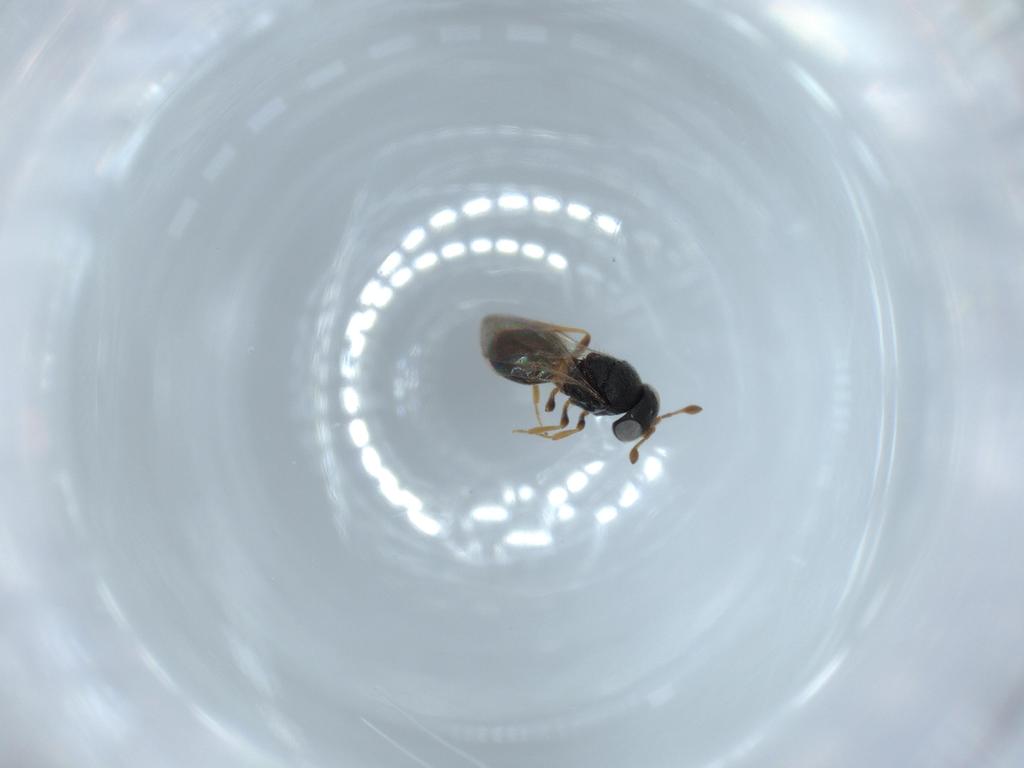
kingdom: Animalia
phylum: Arthropoda
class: Insecta
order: Hymenoptera
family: Scelionidae
